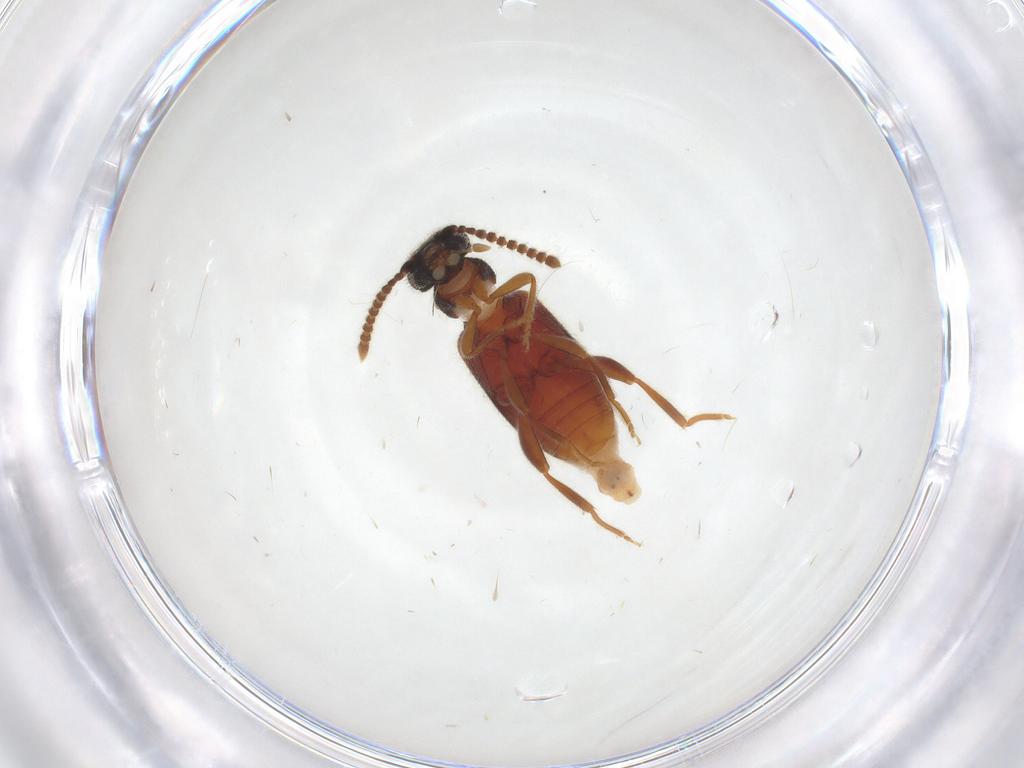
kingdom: Animalia
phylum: Arthropoda
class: Insecta
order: Coleoptera
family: Aderidae
